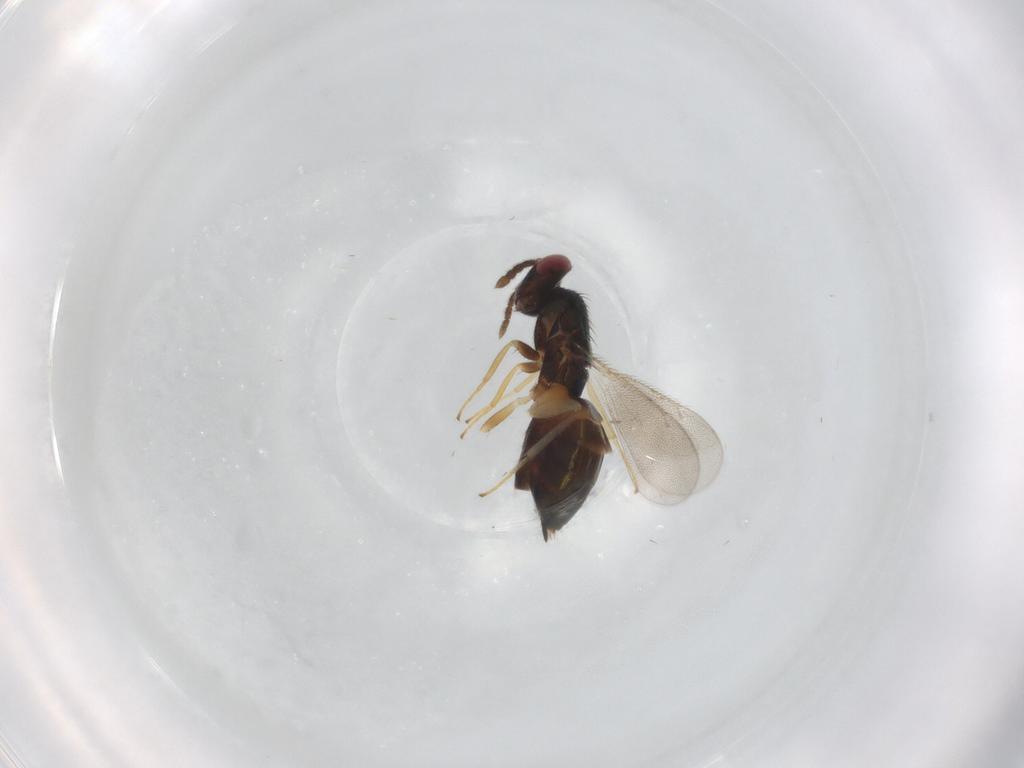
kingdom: Animalia
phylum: Arthropoda
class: Insecta
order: Hymenoptera
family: Eulophidae
